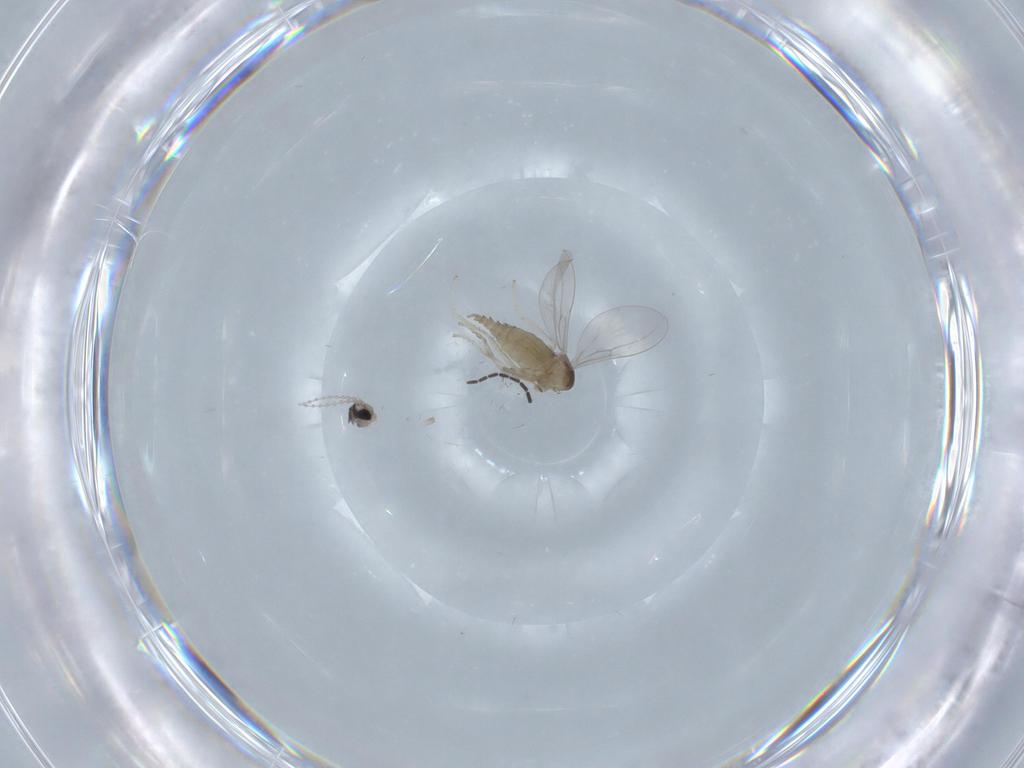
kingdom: Animalia
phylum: Arthropoda
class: Insecta
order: Diptera
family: Cecidomyiidae
